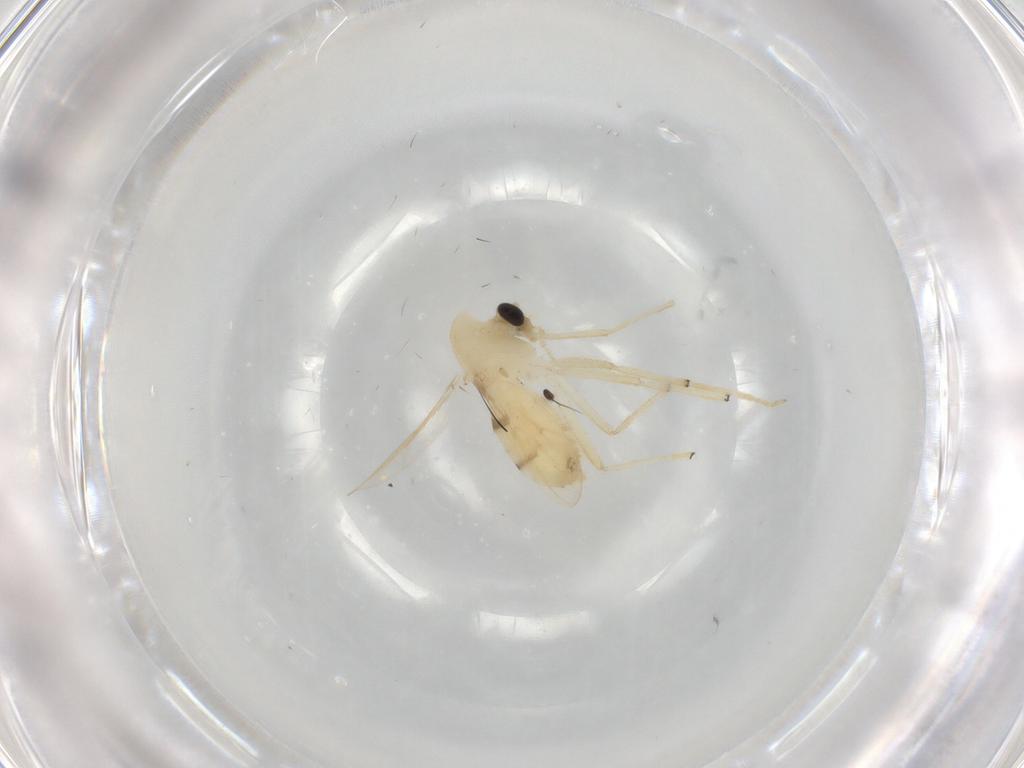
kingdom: Animalia
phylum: Arthropoda
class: Insecta
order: Diptera
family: Chironomidae
